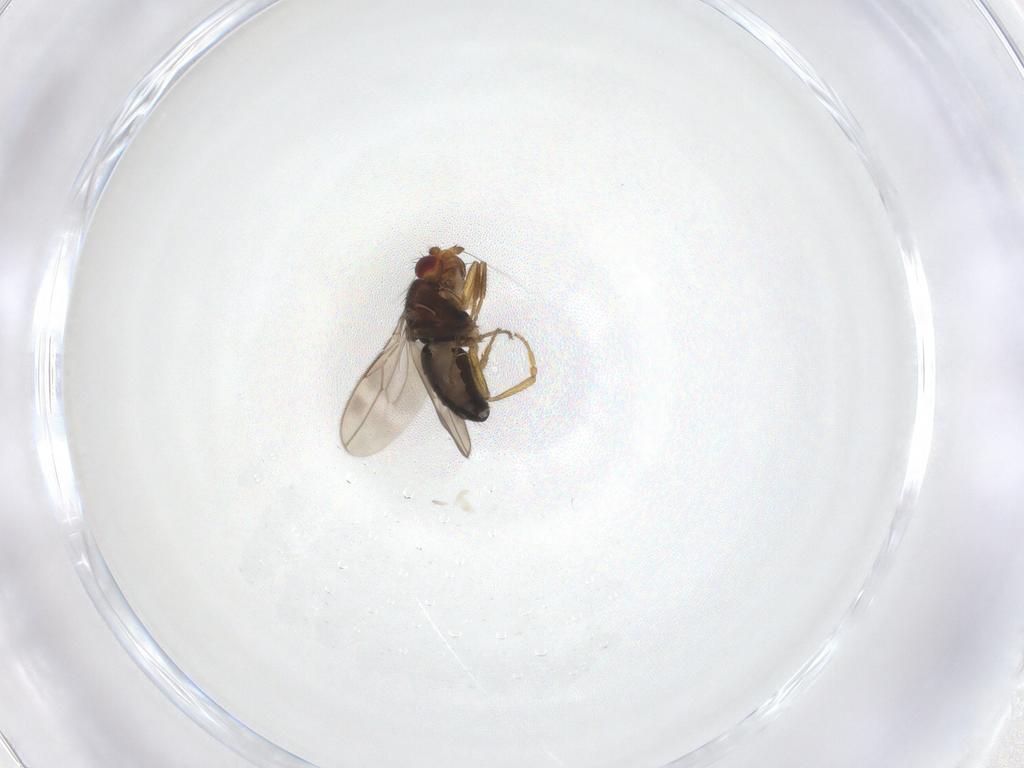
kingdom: Animalia
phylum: Arthropoda
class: Insecta
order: Diptera
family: Sphaeroceridae
